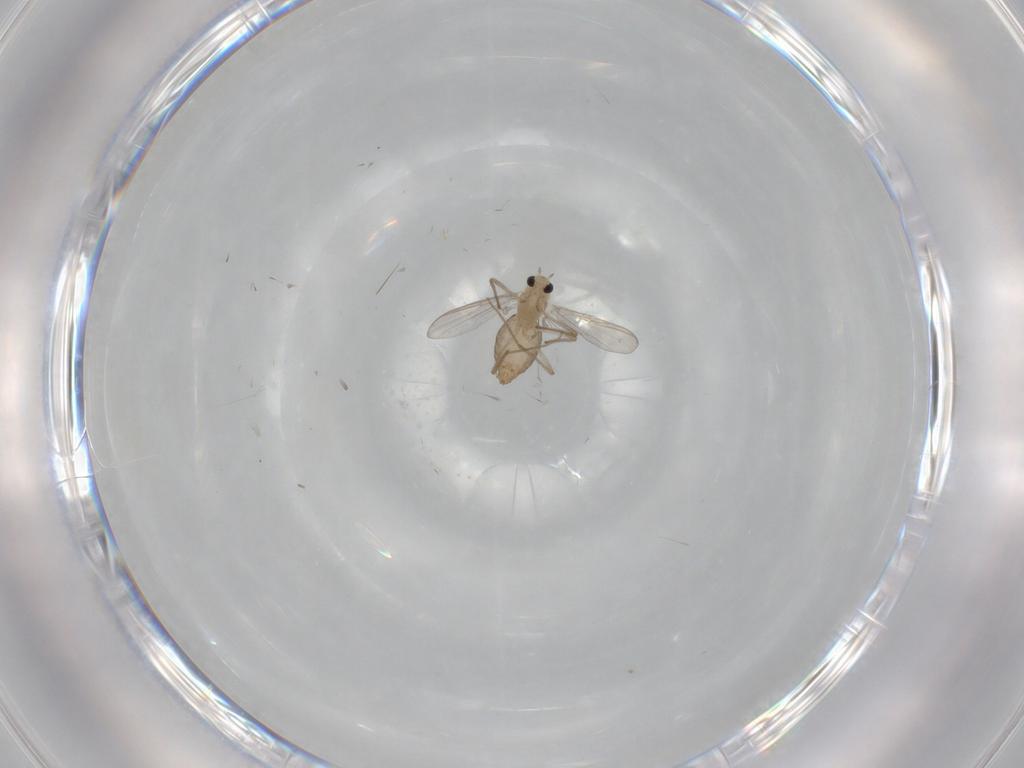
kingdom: Animalia
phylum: Arthropoda
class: Insecta
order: Diptera
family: Chironomidae
